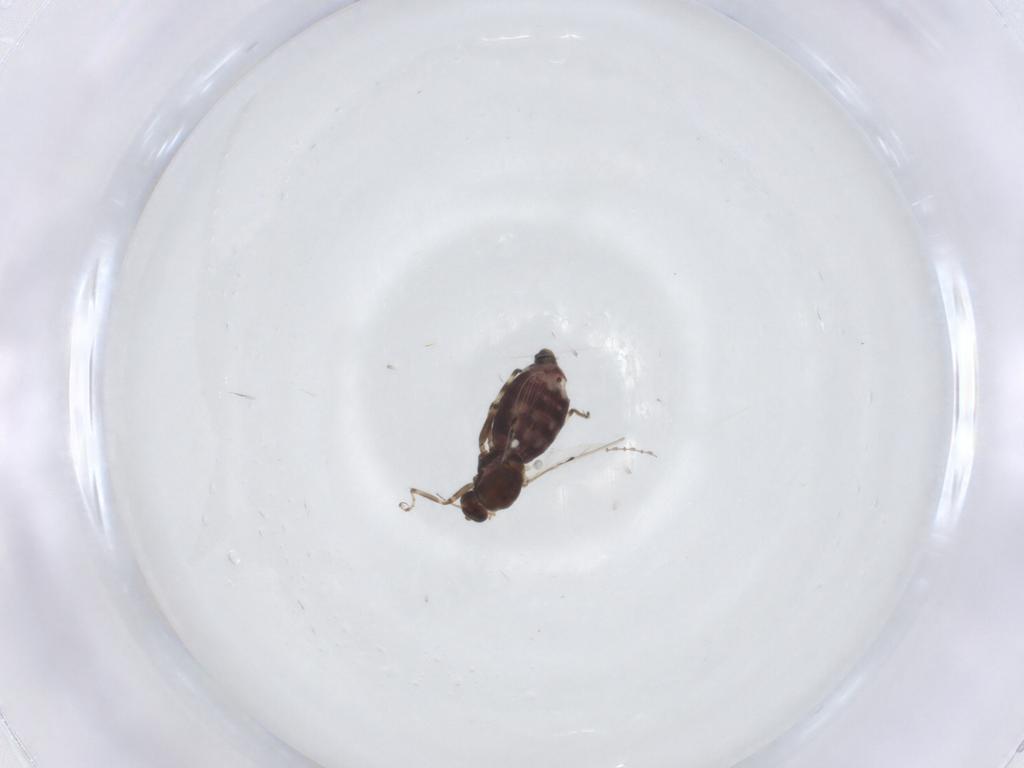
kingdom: Animalia
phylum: Arthropoda
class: Insecta
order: Diptera
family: Ceratopogonidae
